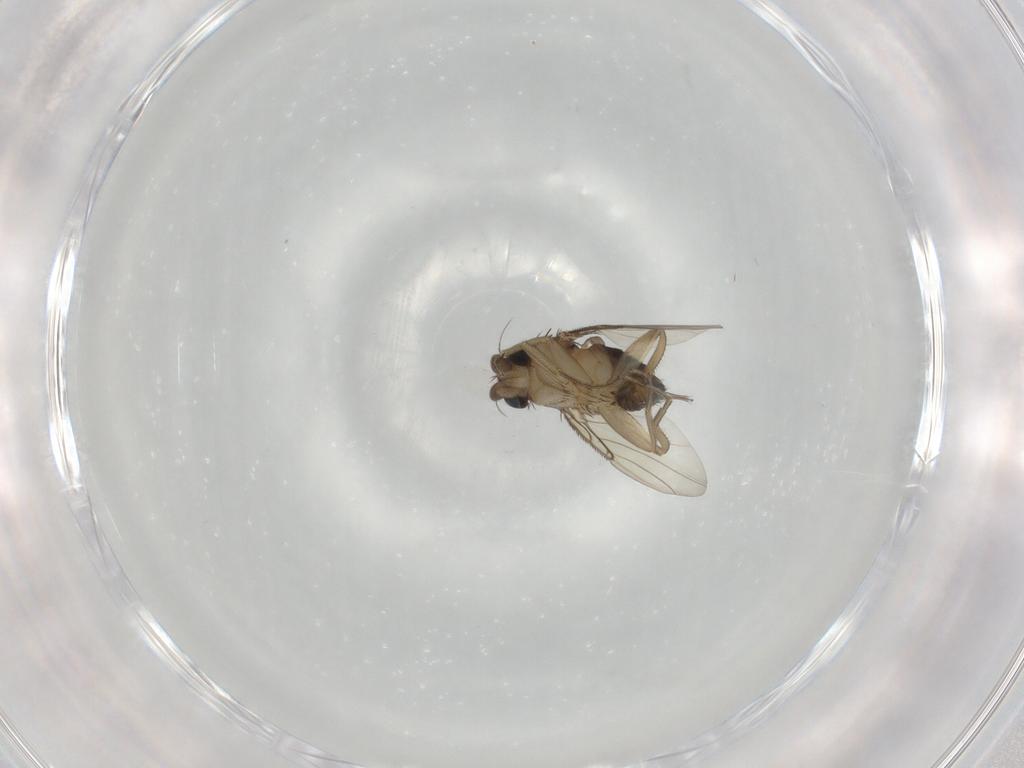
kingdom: Animalia
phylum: Arthropoda
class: Insecta
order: Diptera
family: Phoridae
